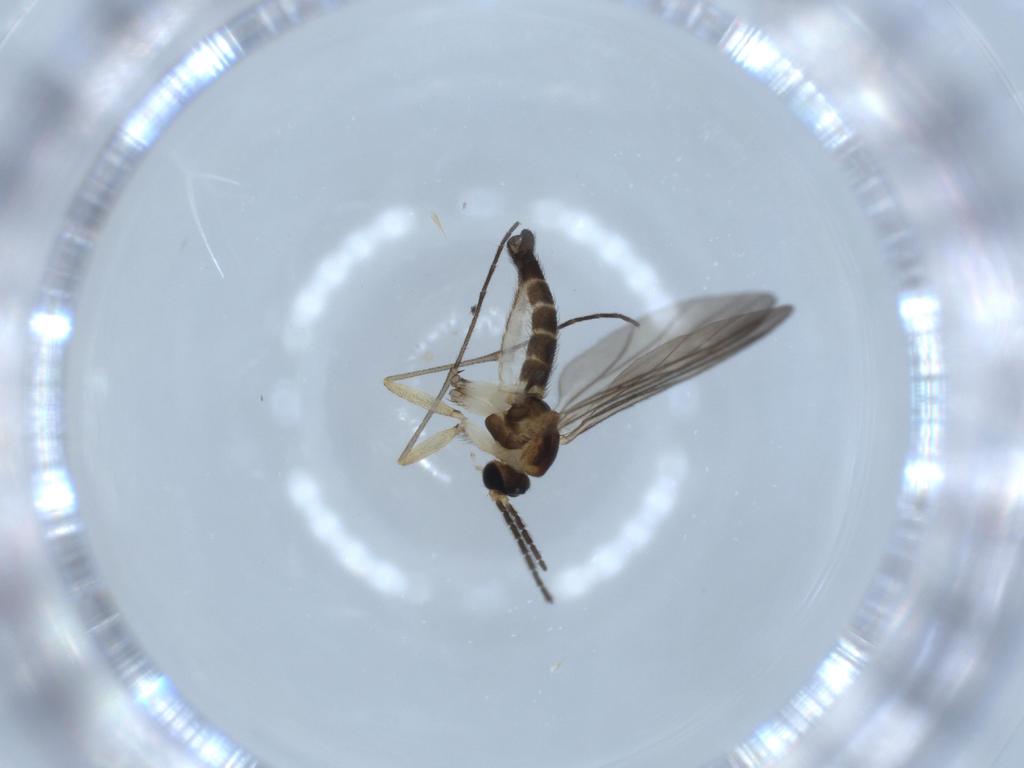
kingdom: Animalia
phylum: Arthropoda
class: Insecta
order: Diptera
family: Sciaridae
